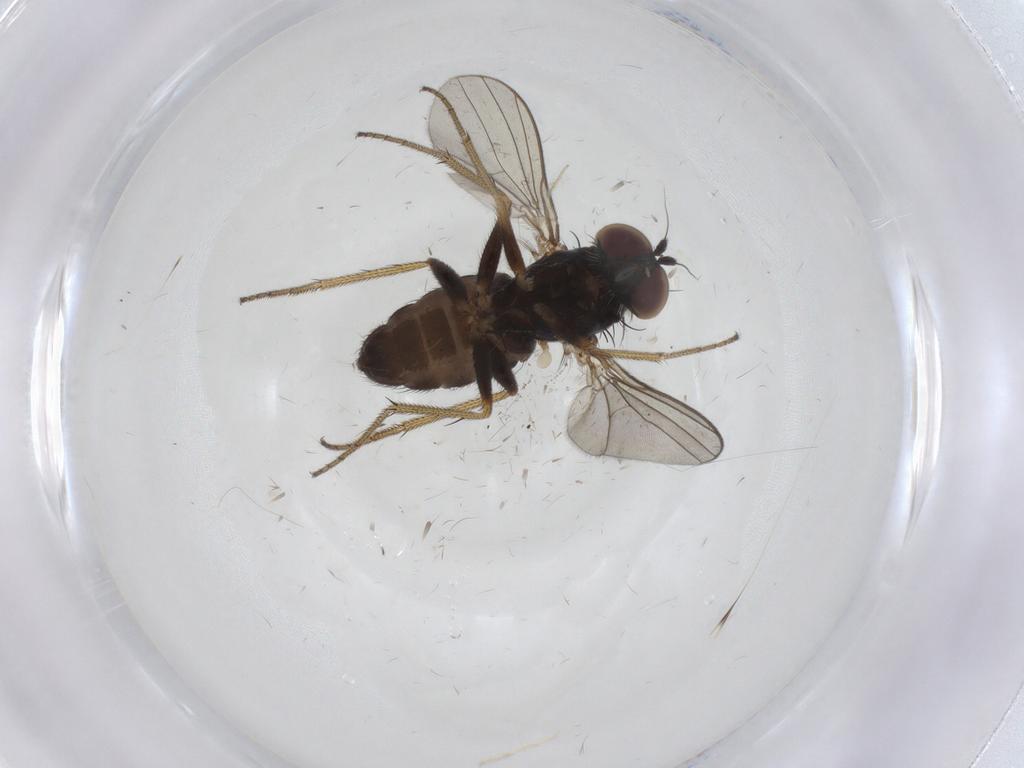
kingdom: Animalia
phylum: Arthropoda
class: Insecta
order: Diptera
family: Dolichopodidae
